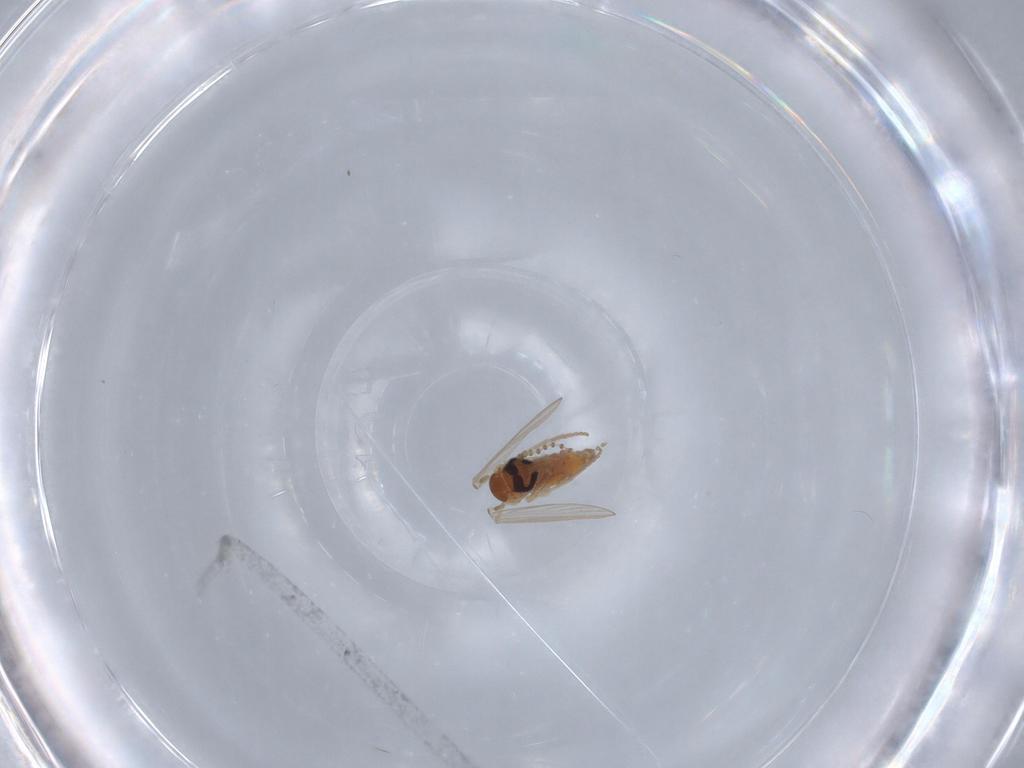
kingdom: Animalia
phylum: Arthropoda
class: Insecta
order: Diptera
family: Psychodidae
